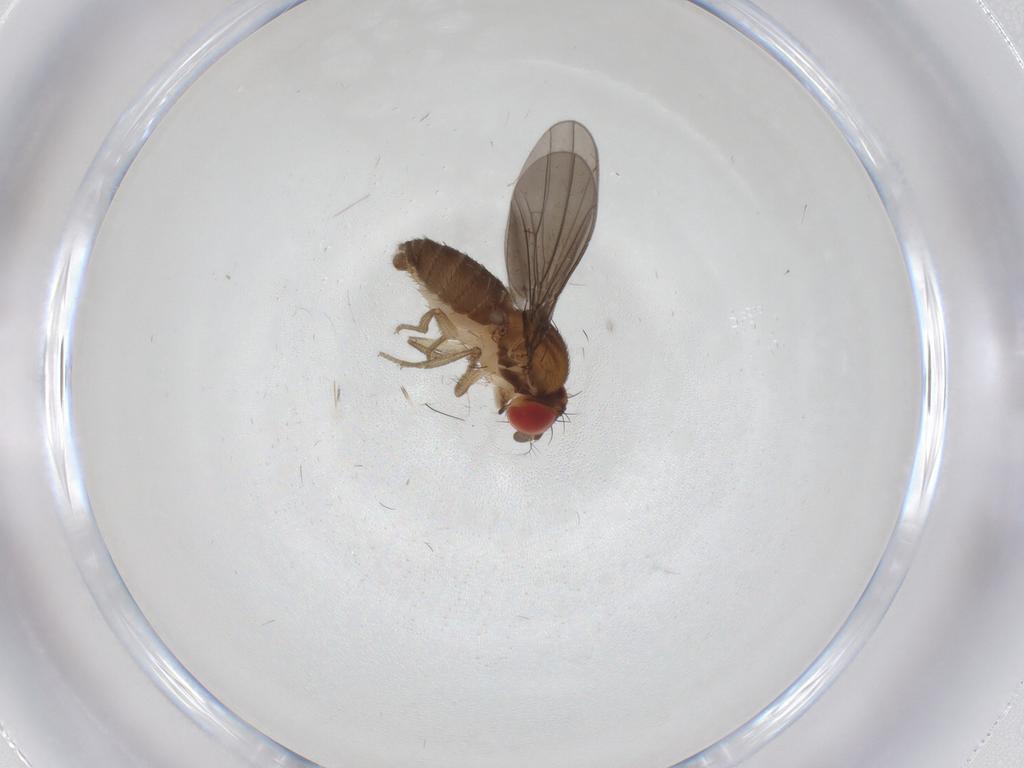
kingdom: Animalia
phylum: Arthropoda
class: Insecta
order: Diptera
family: Drosophilidae
